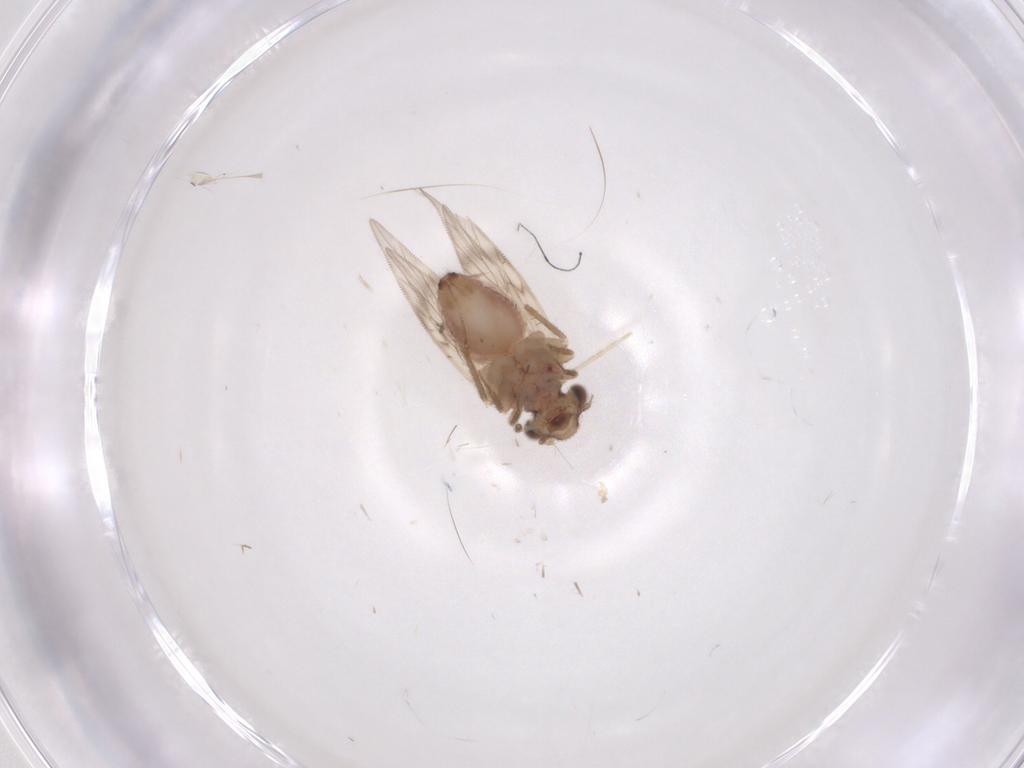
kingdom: Animalia
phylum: Arthropoda
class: Insecta
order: Psocodea
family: Lepidopsocidae
